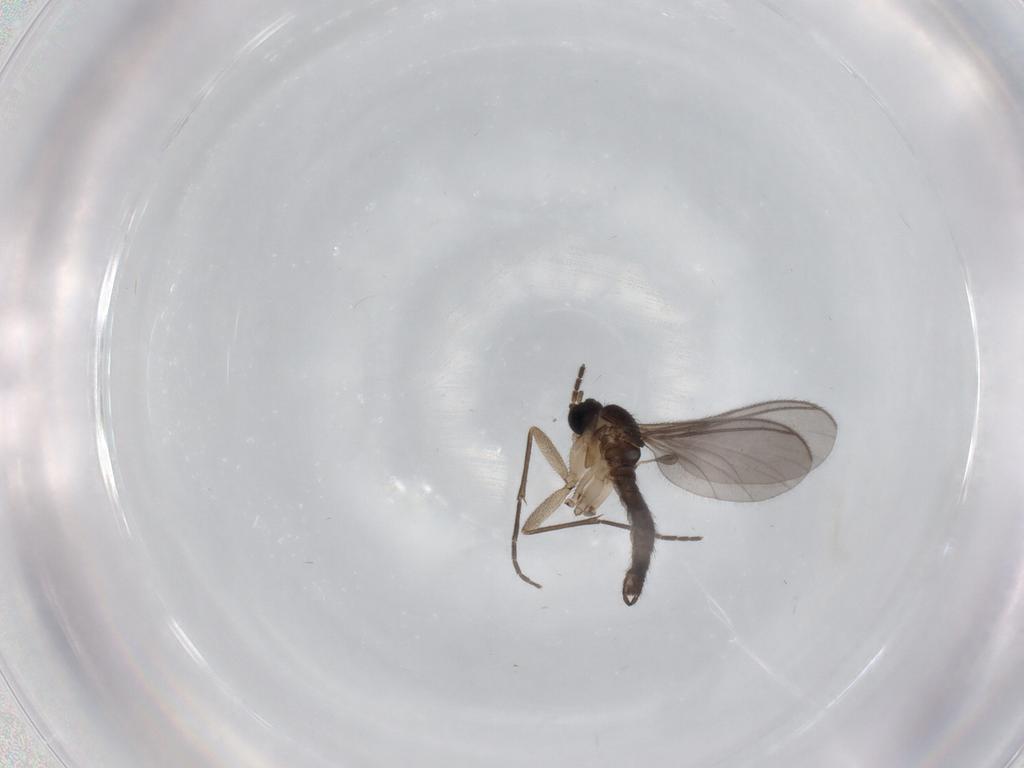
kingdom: Animalia
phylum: Arthropoda
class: Insecta
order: Diptera
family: Sciaridae
